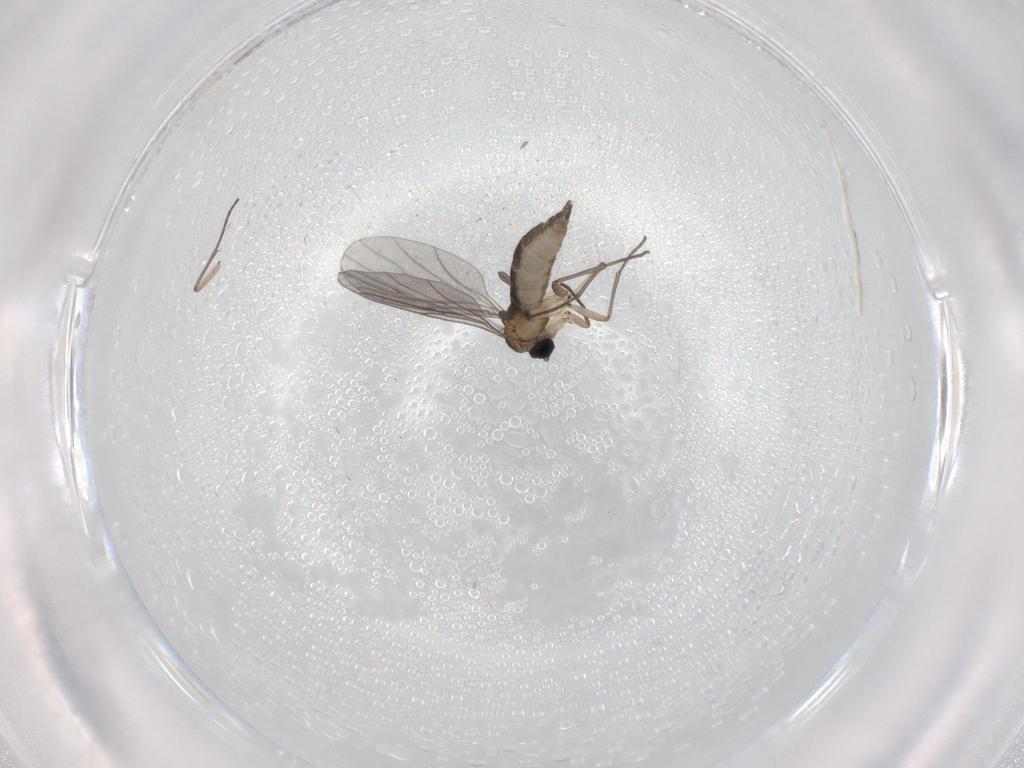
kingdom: Animalia
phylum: Arthropoda
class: Insecta
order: Diptera
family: Sciaridae
